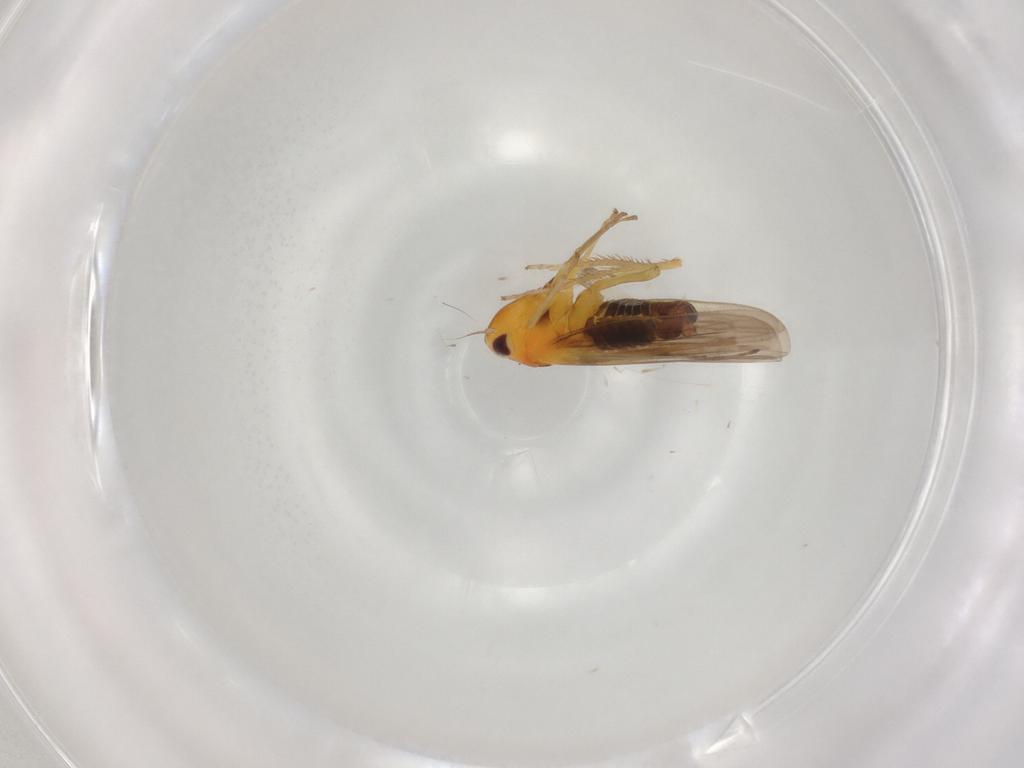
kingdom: Animalia
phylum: Arthropoda
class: Insecta
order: Hemiptera
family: Cicadellidae
